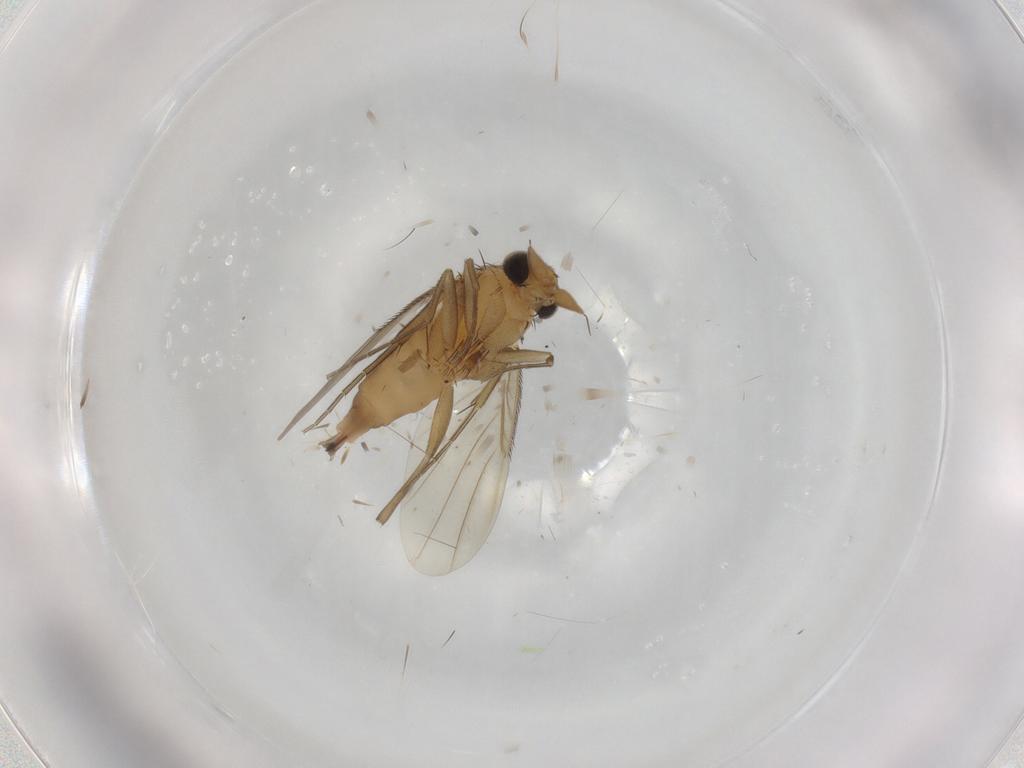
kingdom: Animalia
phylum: Arthropoda
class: Insecta
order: Diptera
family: Phoridae
